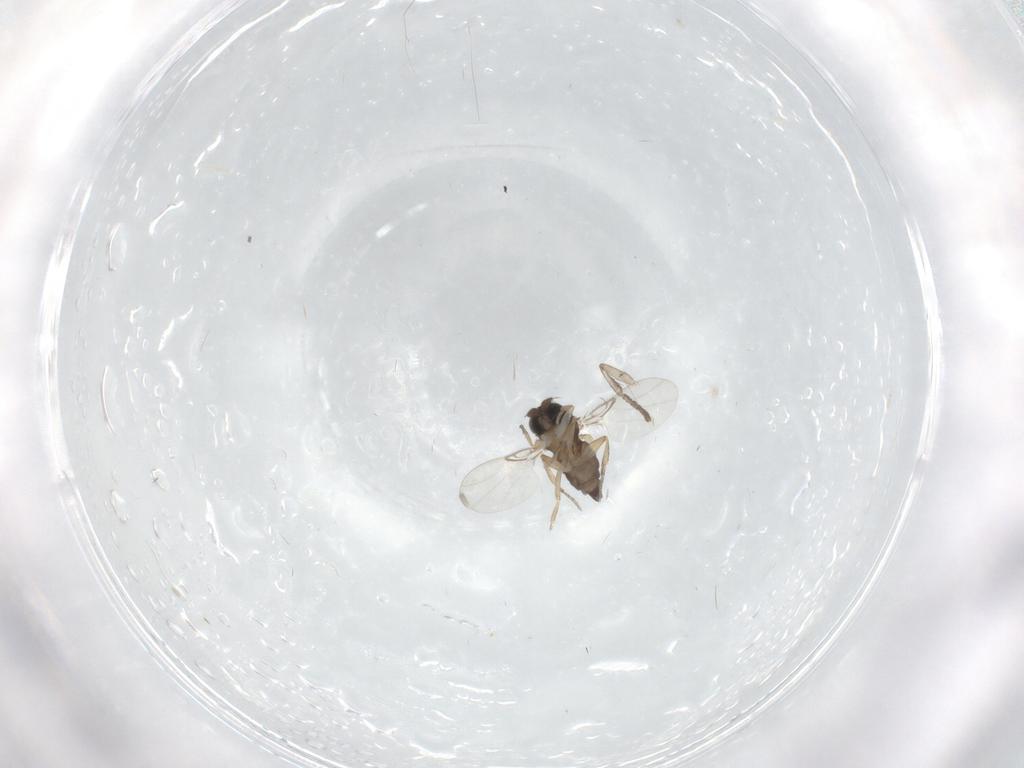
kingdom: Animalia
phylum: Arthropoda
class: Insecta
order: Diptera
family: Phoridae
